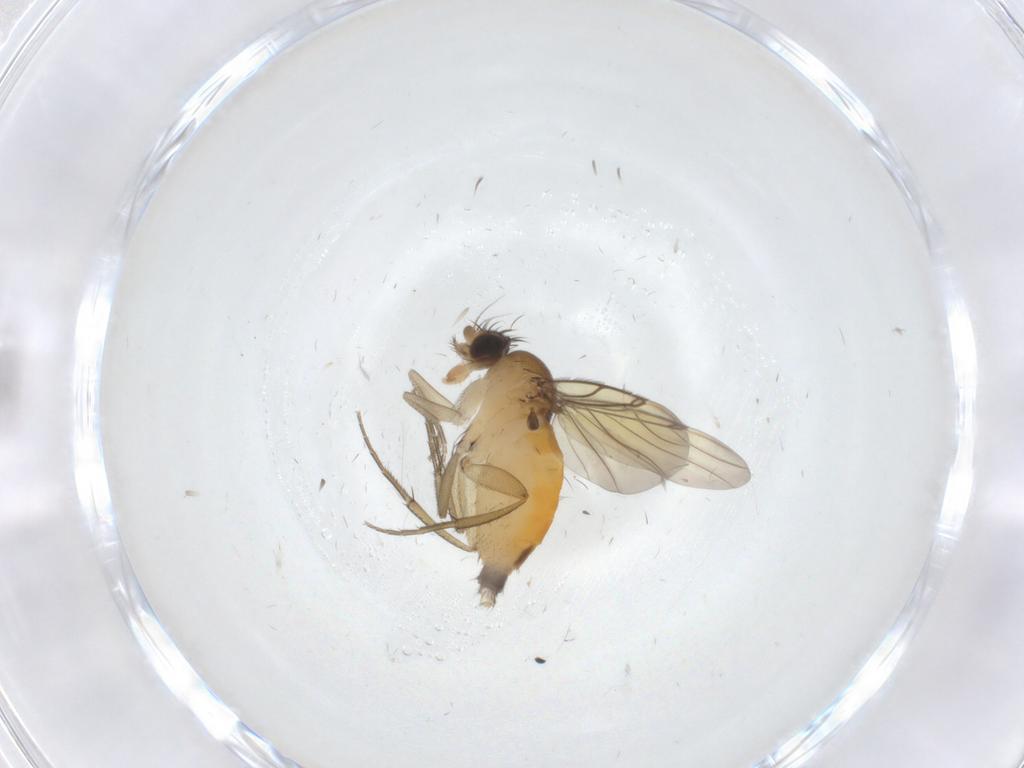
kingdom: Animalia
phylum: Arthropoda
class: Insecta
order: Diptera
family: Phoridae
